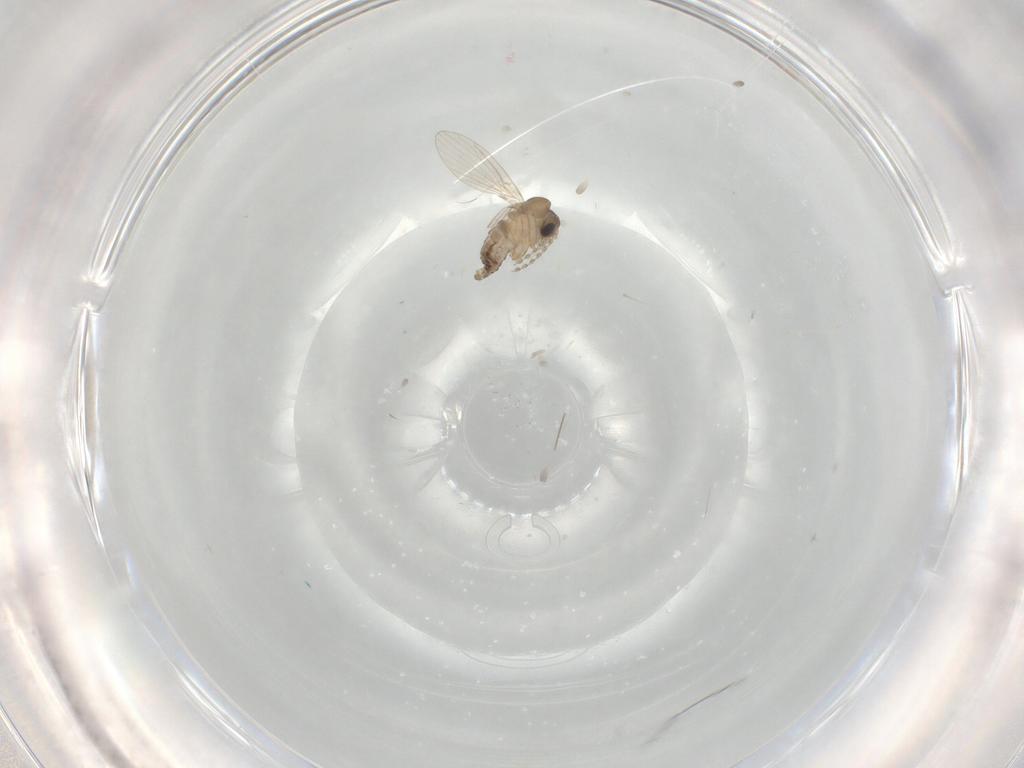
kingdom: Animalia
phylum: Arthropoda
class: Insecta
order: Diptera
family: Psychodidae
